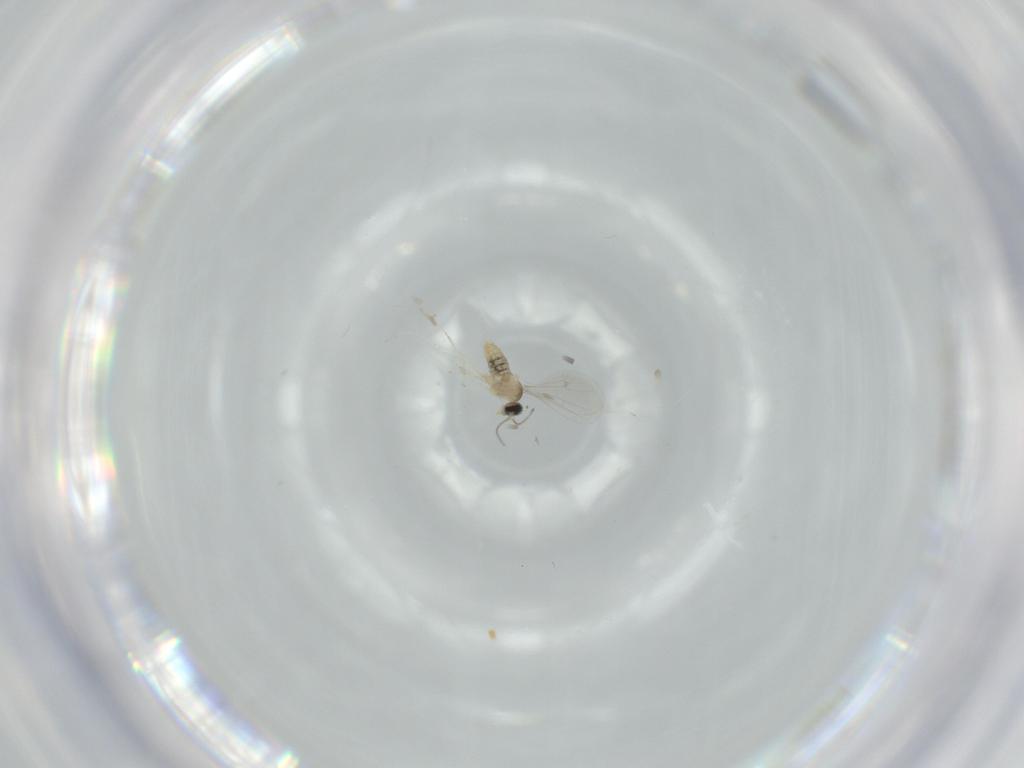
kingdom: Animalia
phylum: Arthropoda
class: Insecta
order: Diptera
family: Cecidomyiidae
